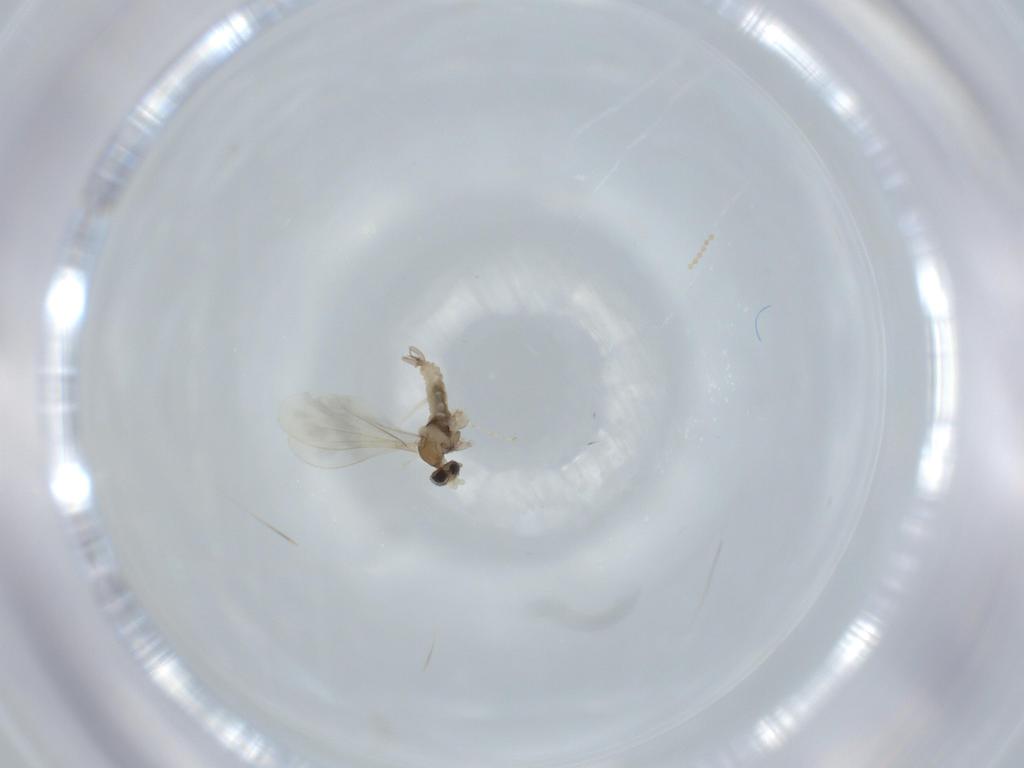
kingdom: Animalia
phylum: Arthropoda
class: Insecta
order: Diptera
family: Cecidomyiidae
